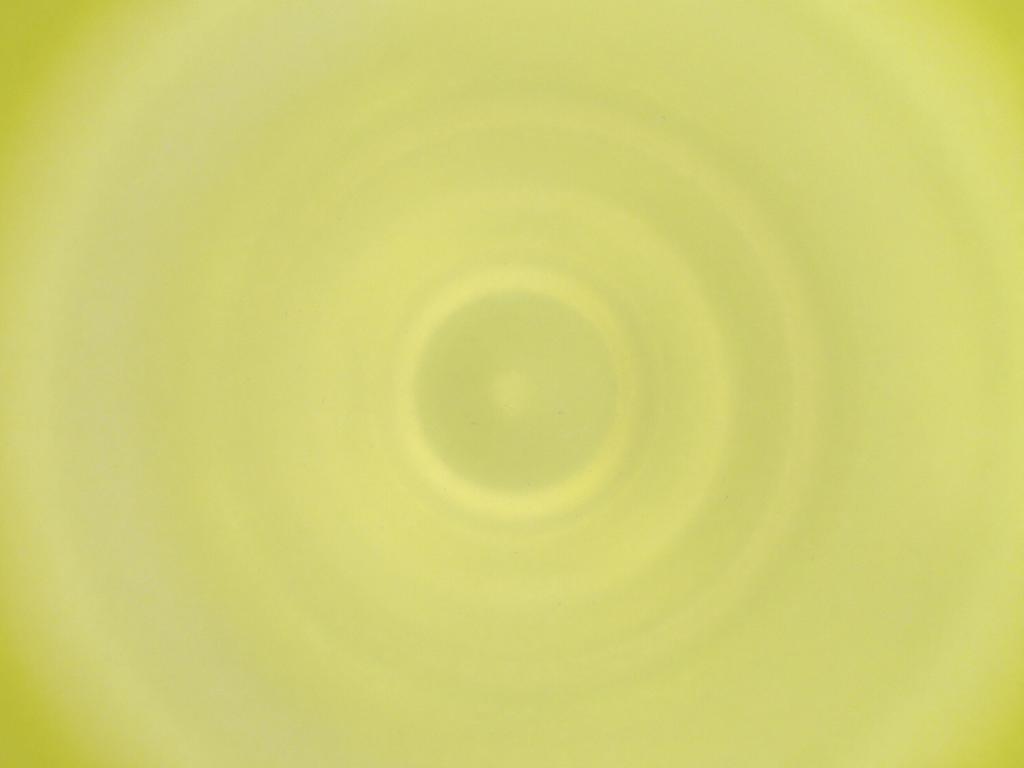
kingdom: Animalia
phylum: Arthropoda
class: Insecta
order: Diptera
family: Cecidomyiidae
